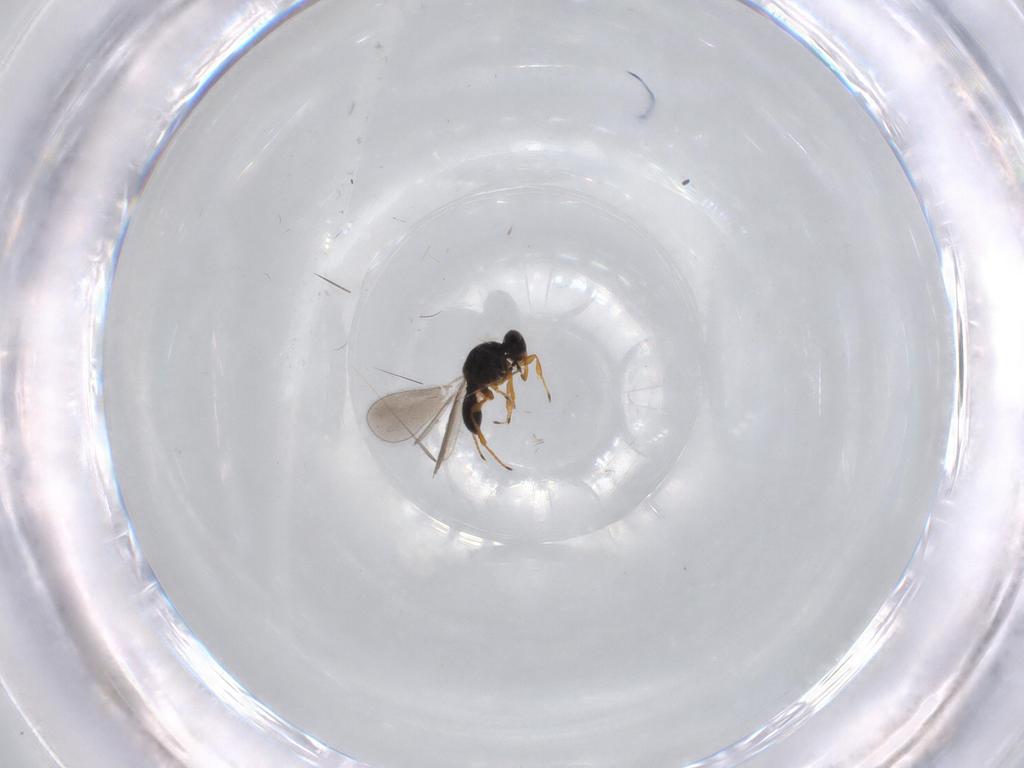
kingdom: Animalia
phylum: Arthropoda
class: Insecta
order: Hymenoptera
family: Platygastridae
